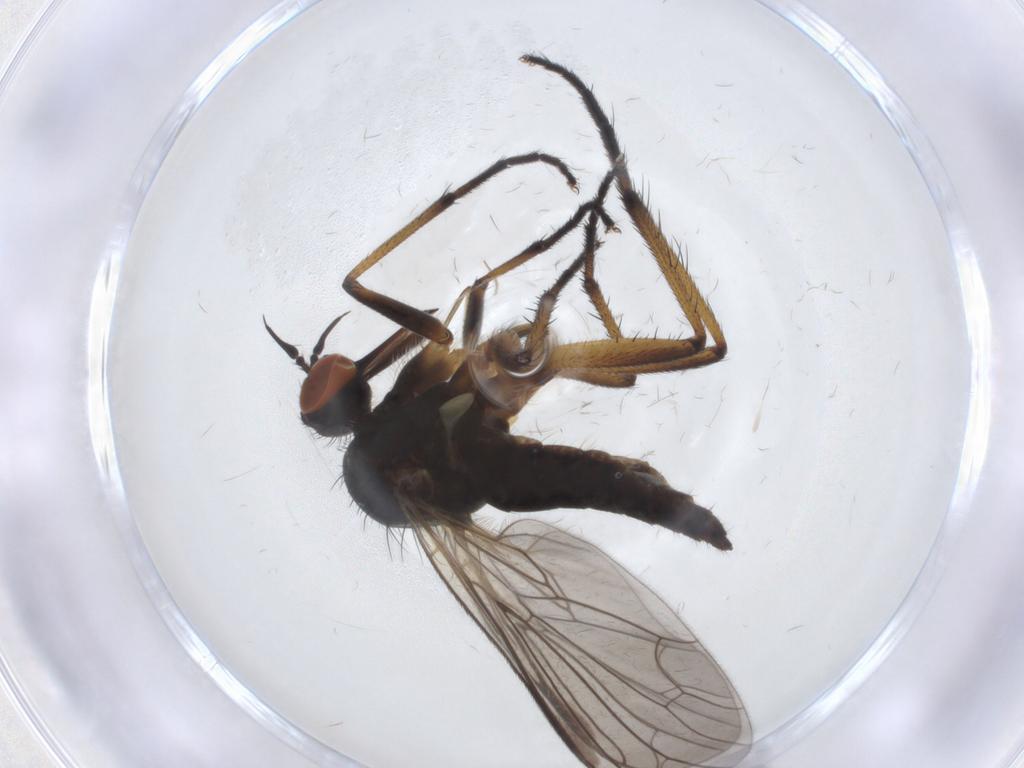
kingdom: Animalia
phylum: Arthropoda
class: Insecta
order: Diptera
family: Empididae
